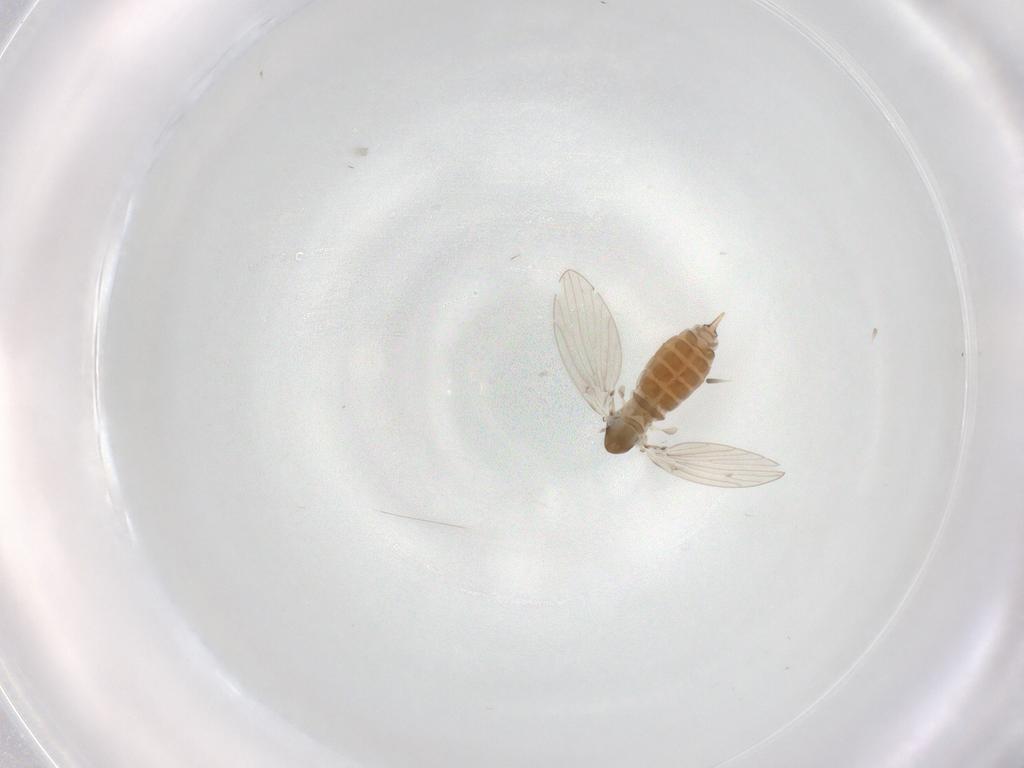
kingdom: Animalia
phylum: Arthropoda
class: Insecta
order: Diptera
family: Psychodidae
